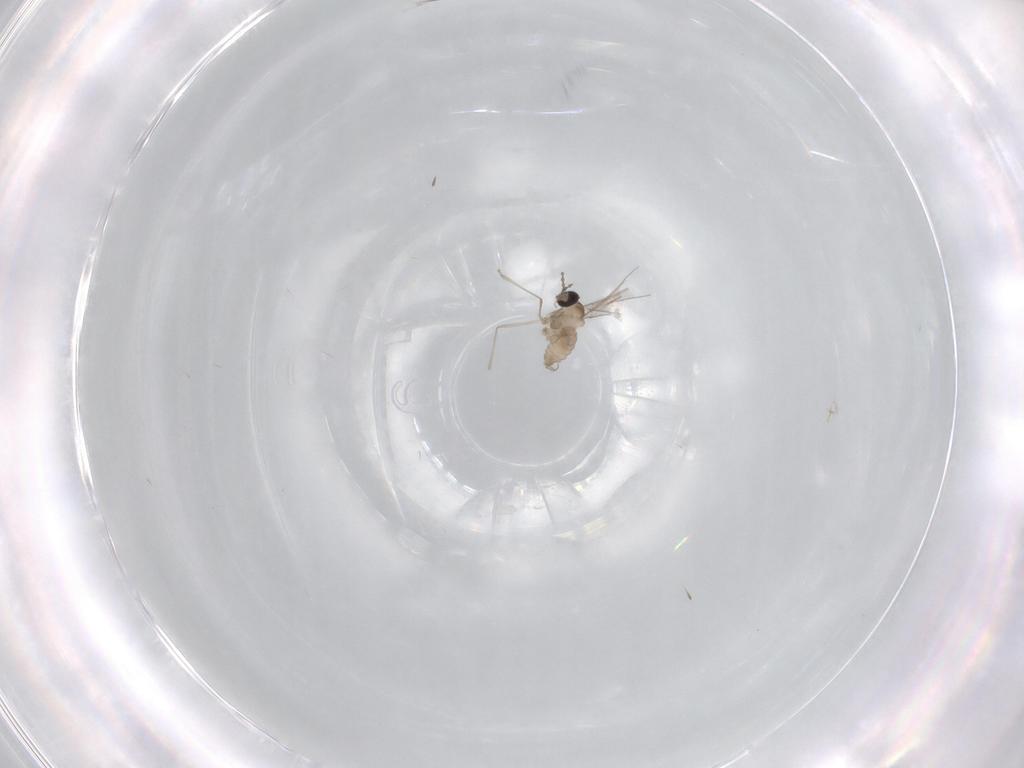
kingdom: Animalia
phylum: Arthropoda
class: Insecta
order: Diptera
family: Cecidomyiidae
